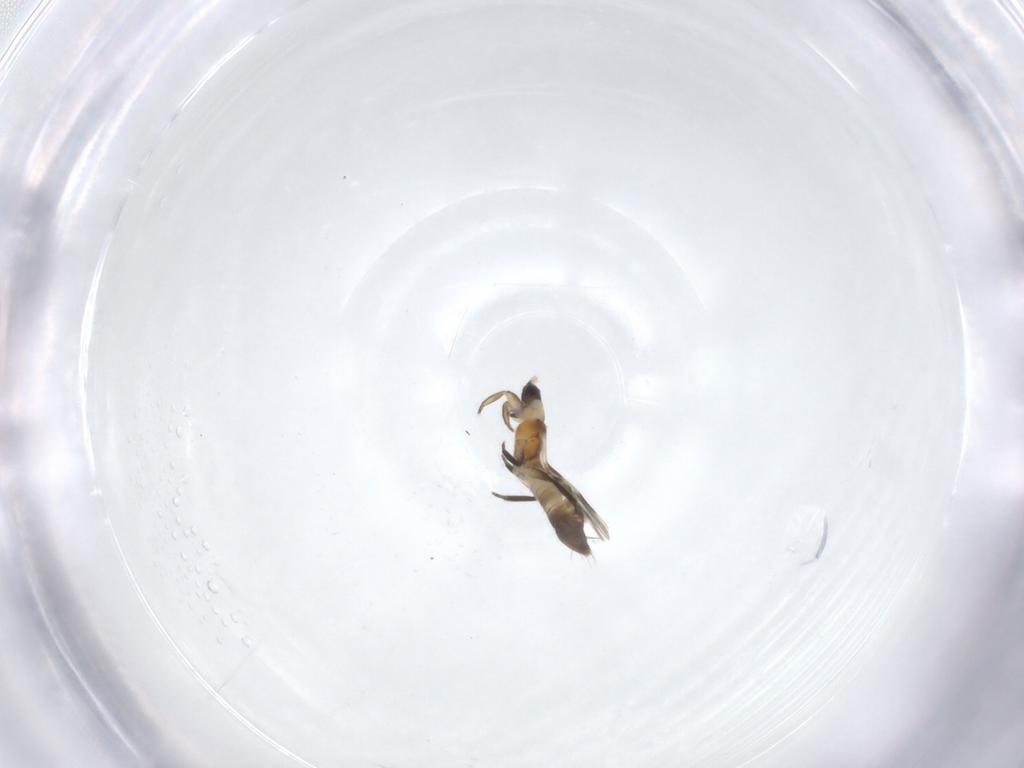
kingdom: Animalia
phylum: Arthropoda
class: Insecta
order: Thysanoptera
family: Aeolothripidae
